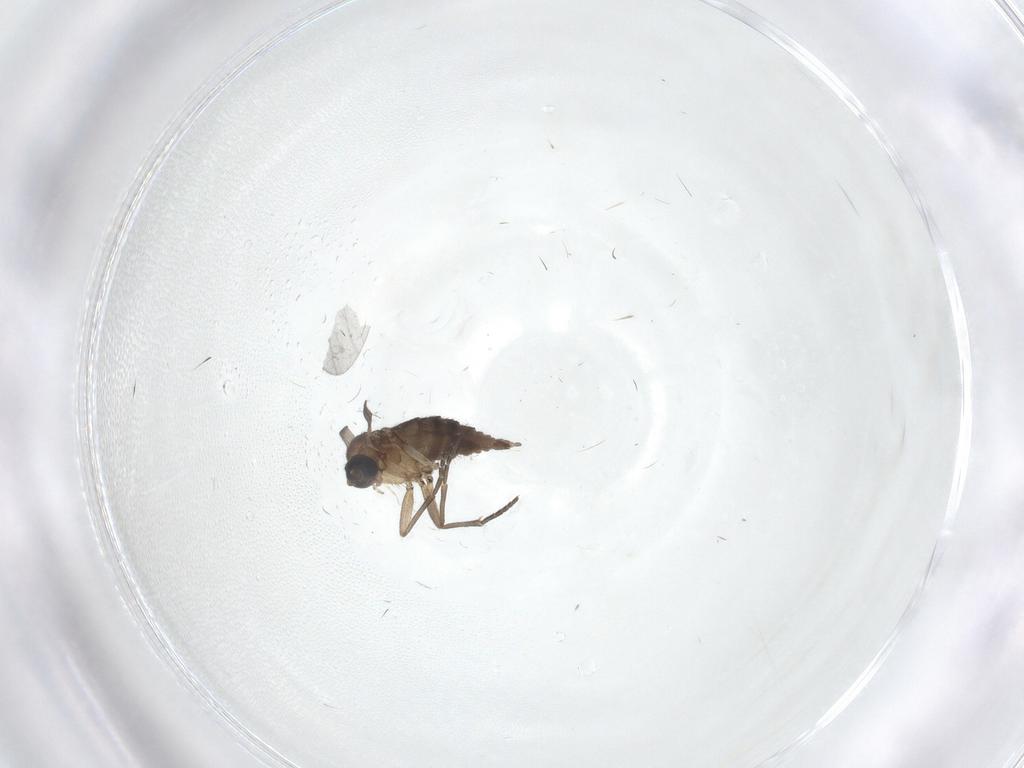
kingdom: Animalia
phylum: Arthropoda
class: Insecta
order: Diptera
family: Sciaridae
